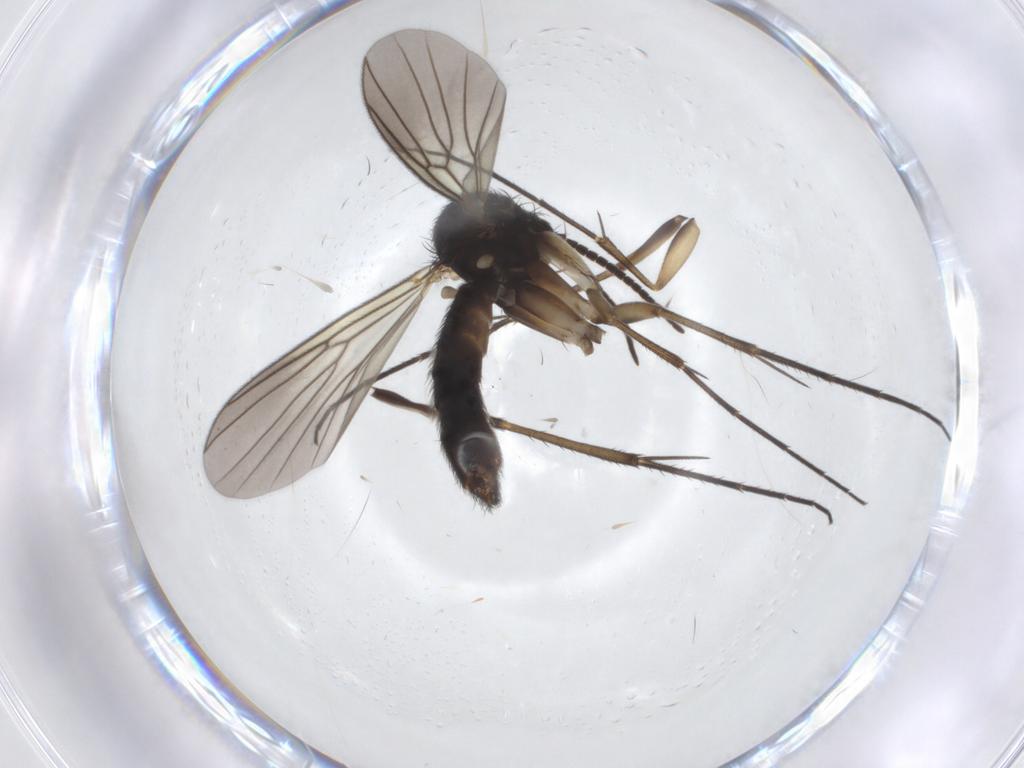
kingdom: Animalia
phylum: Arthropoda
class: Insecta
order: Diptera
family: Mycetophilidae
